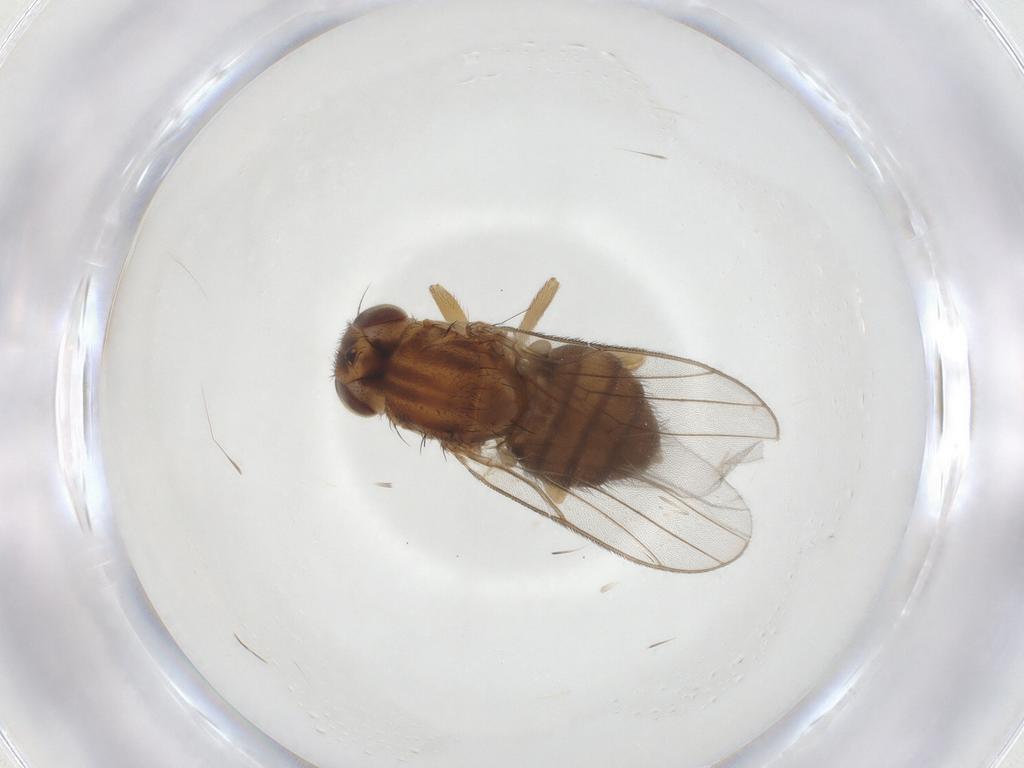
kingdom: Animalia
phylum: Arthropoda
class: Insecta
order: Diptera
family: Chloropidae
